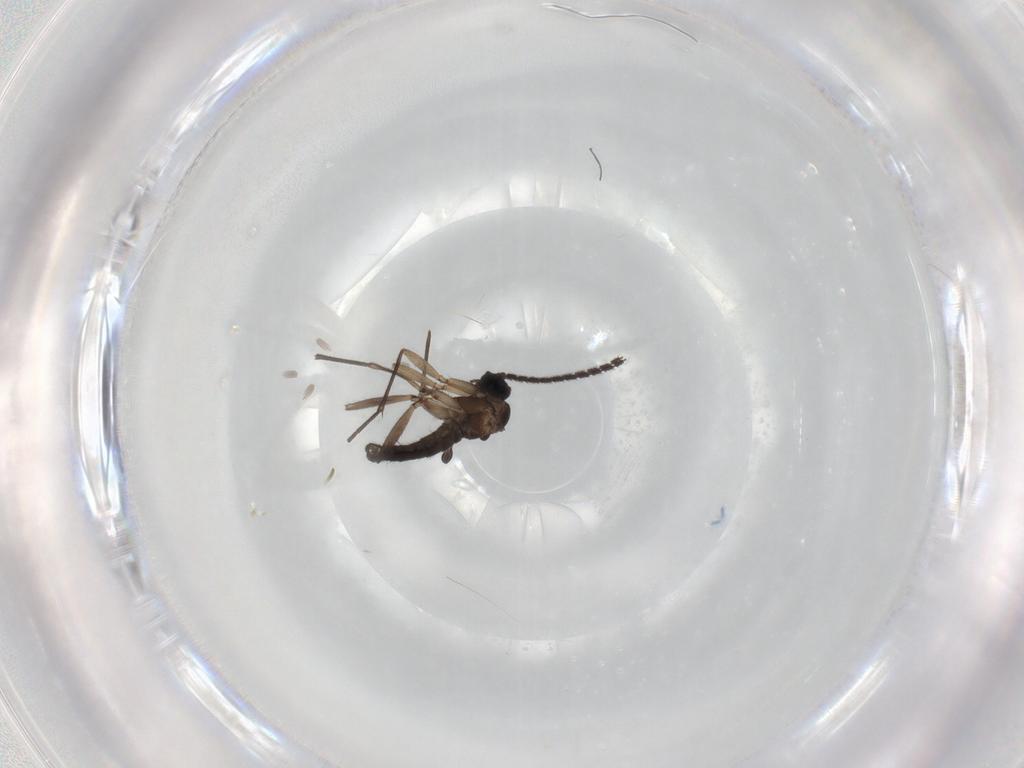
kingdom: Animalia
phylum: Arthropoda
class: Insecta
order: Diptera
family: Sciaridae
